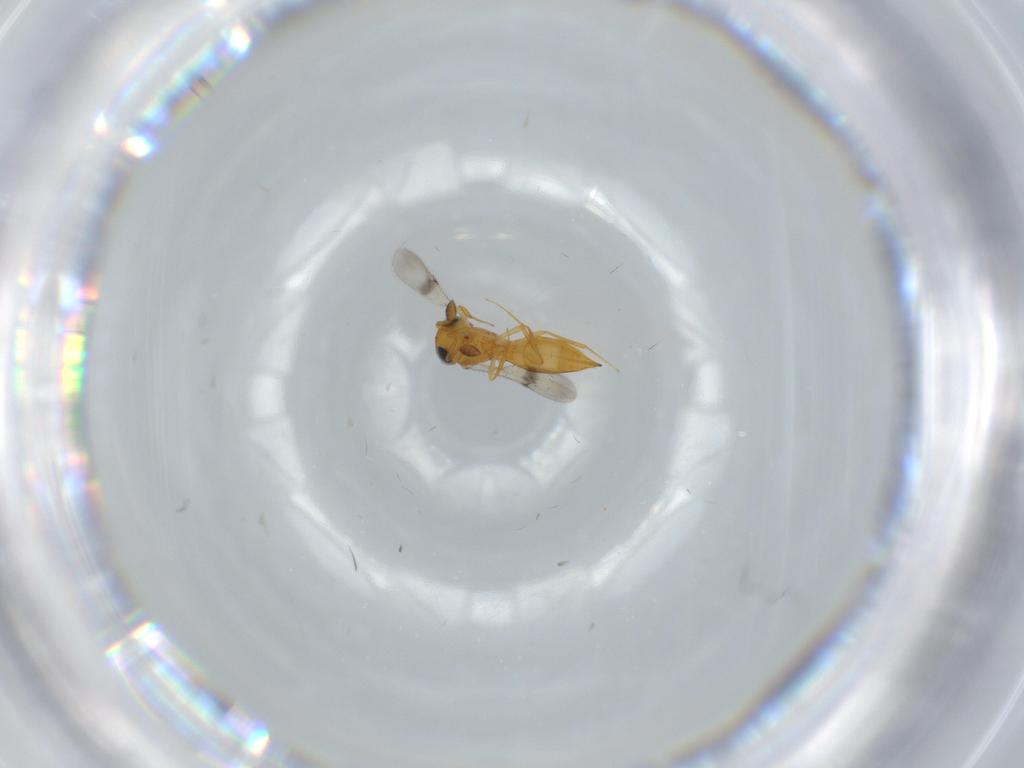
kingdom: Animalia
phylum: Arthropoda
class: Insecta
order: Hymenoptera
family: Scelionidae
